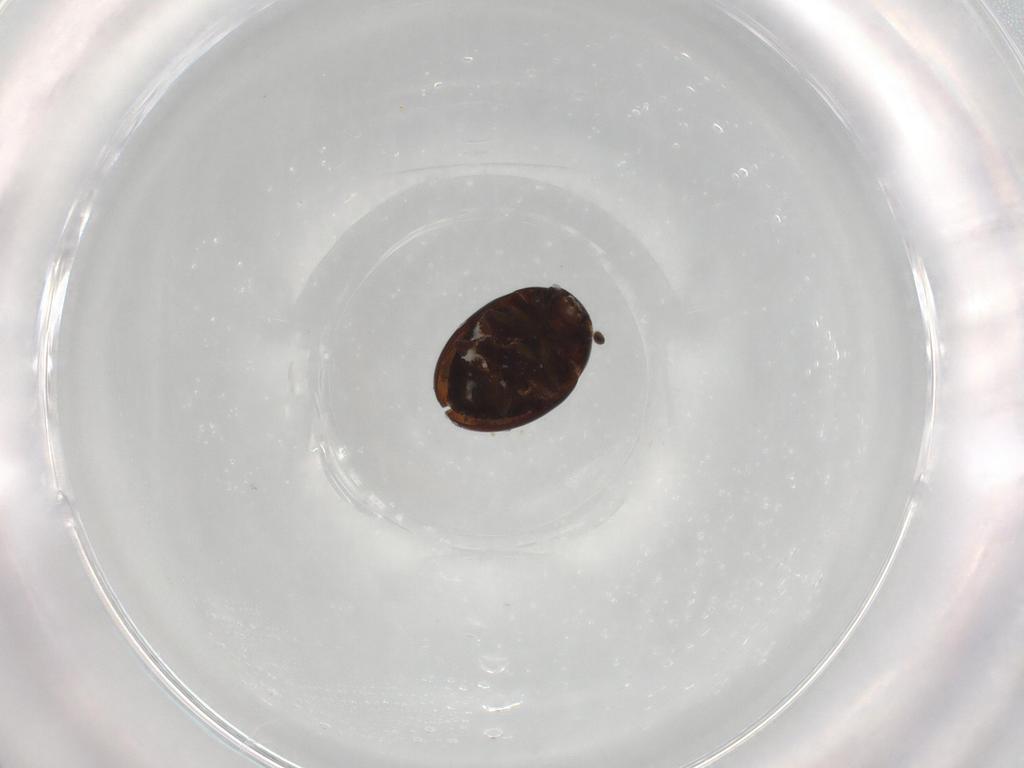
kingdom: Animalia
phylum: Arthropoda
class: Insecta
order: Coleoptera
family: Leiodidae
